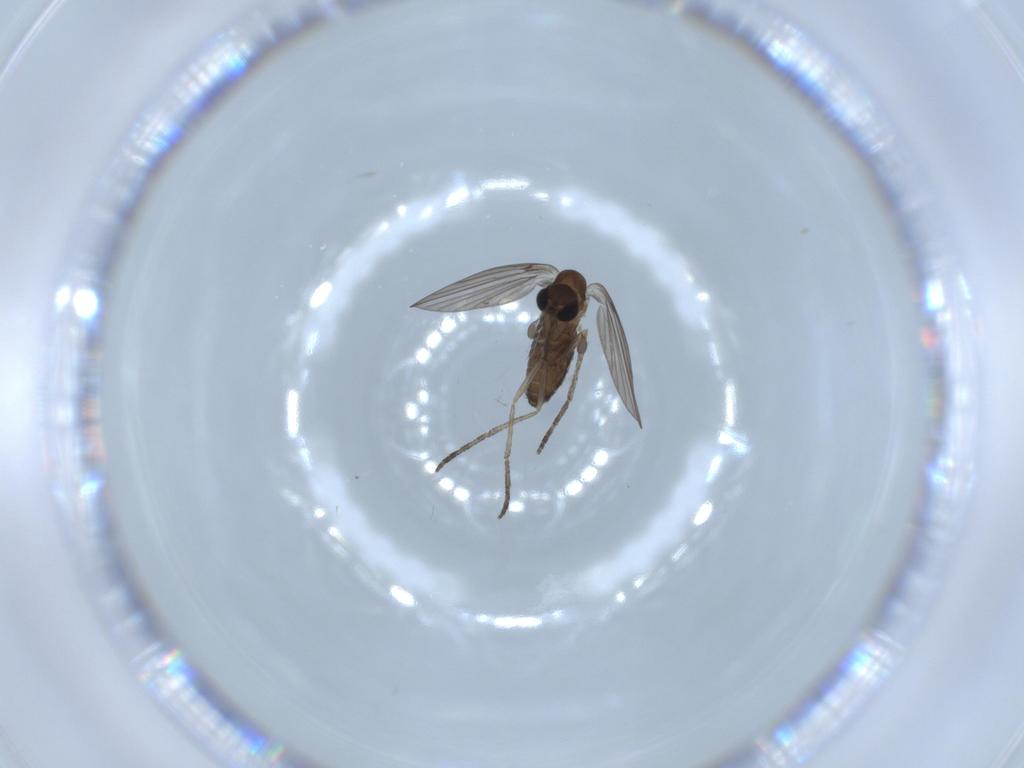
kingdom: Animalia
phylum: Arthropoda
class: Insecta
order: Diptera
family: Psychodidae
